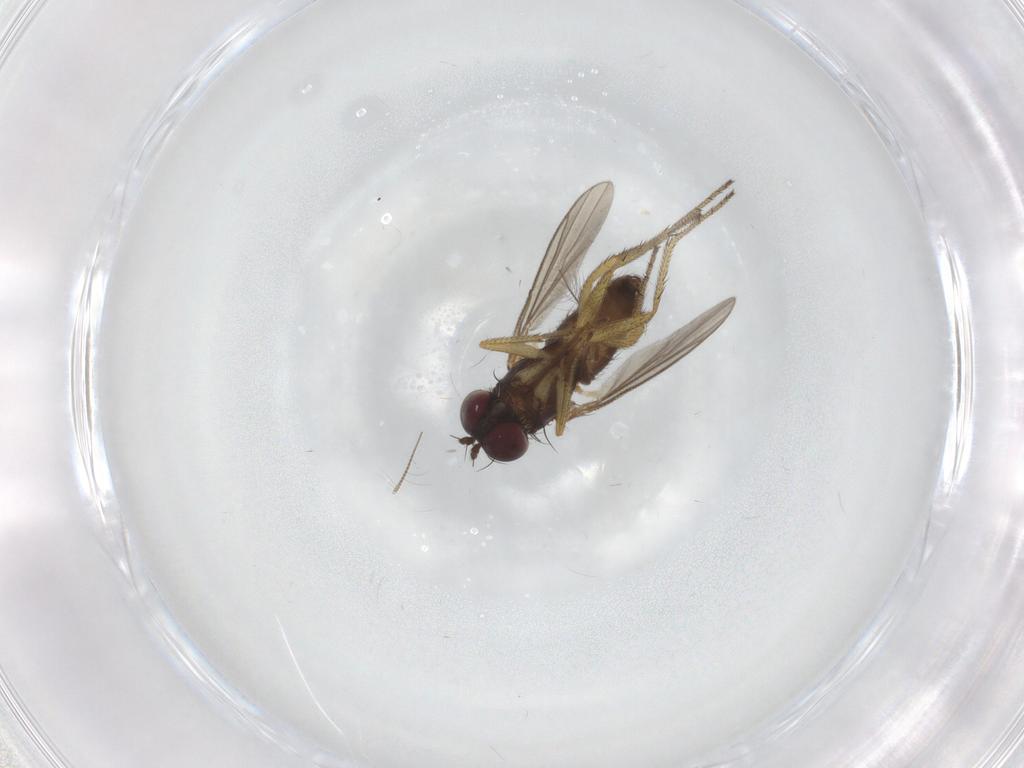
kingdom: Animalia
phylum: Arthropoda
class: Insecta
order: Diptera
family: Dolichopodidae
